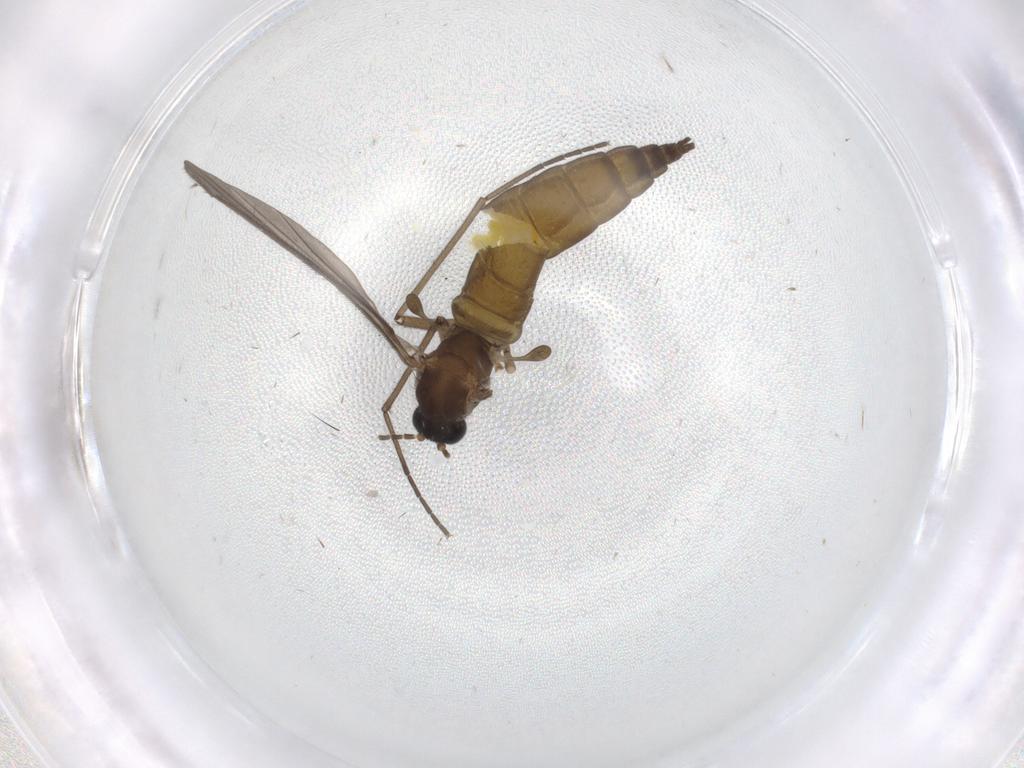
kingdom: Animalia
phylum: Arthropoda
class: Insecta
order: Diptera
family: Sciaridae
